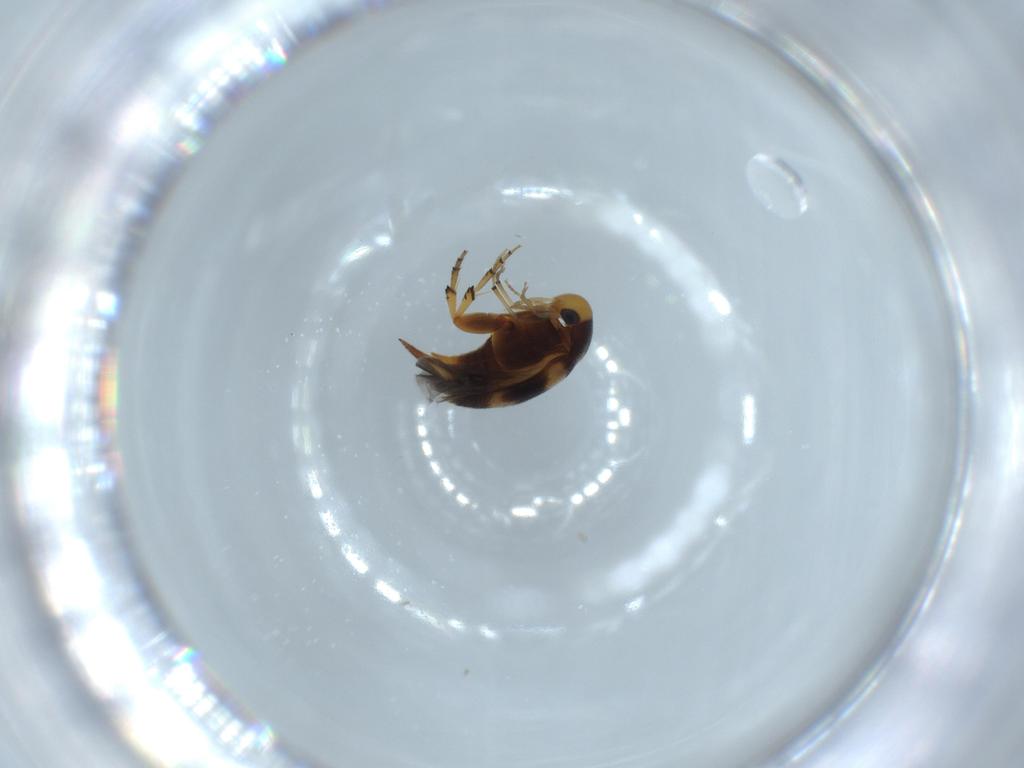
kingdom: Animalia
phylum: Arthropoda
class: Insecta
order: Coleoptera
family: Mordellidae
